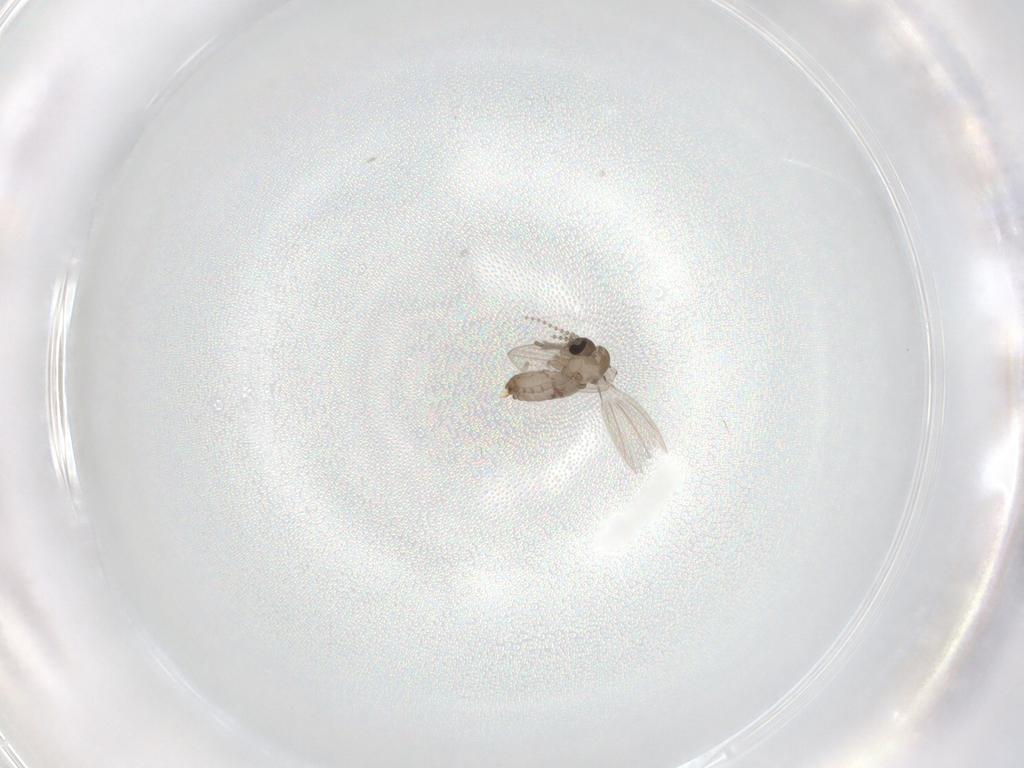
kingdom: Animalia
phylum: Arthropoda
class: Insecta
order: Diptera
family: Psychodidae
